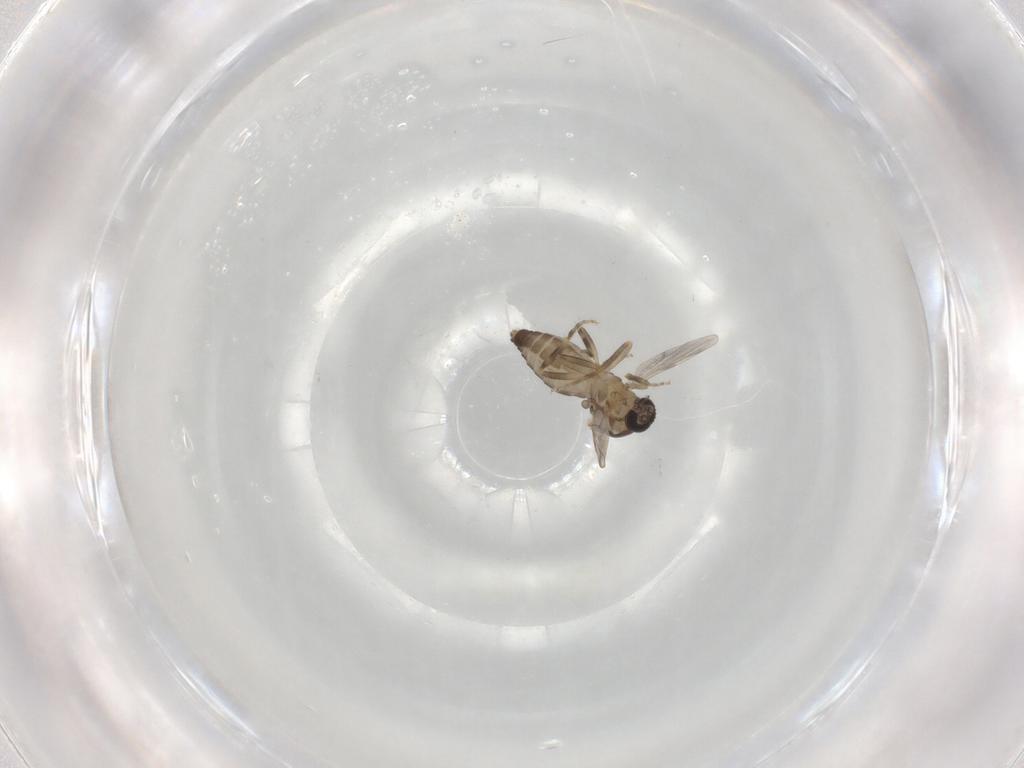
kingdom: Animalia
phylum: Arthropoda
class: Insecta
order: Diptera
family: Ceratopogonidae
